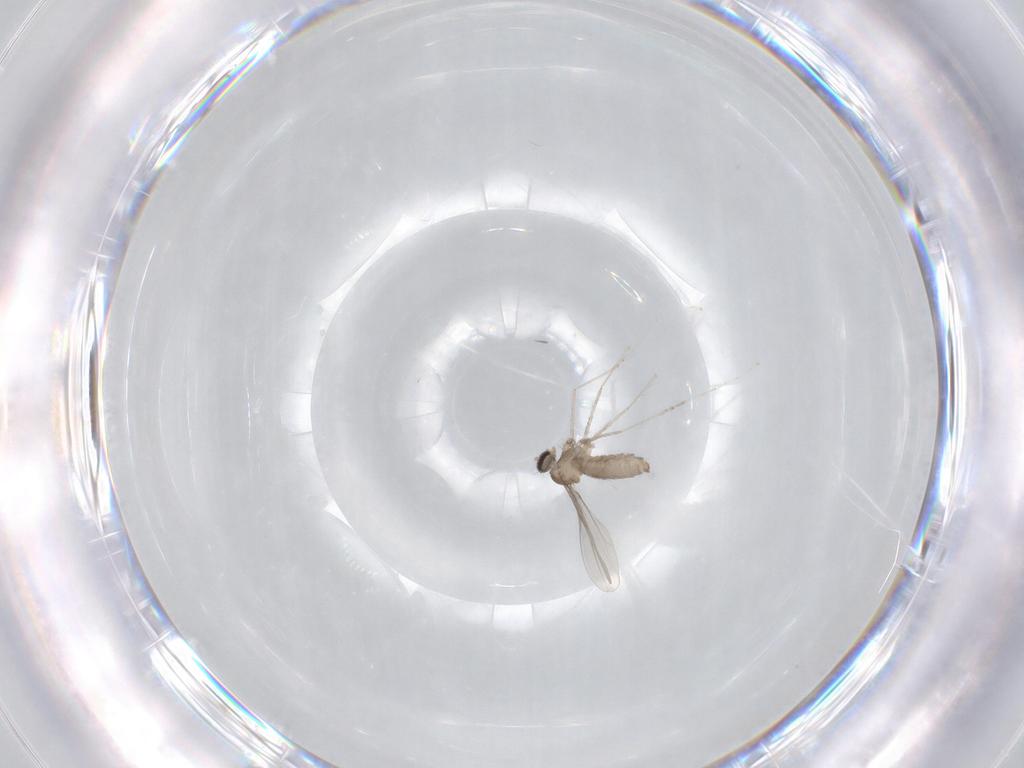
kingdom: Animalia
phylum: Arthropoda
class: Insecta
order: Diptera
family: Cecidomyiidae
